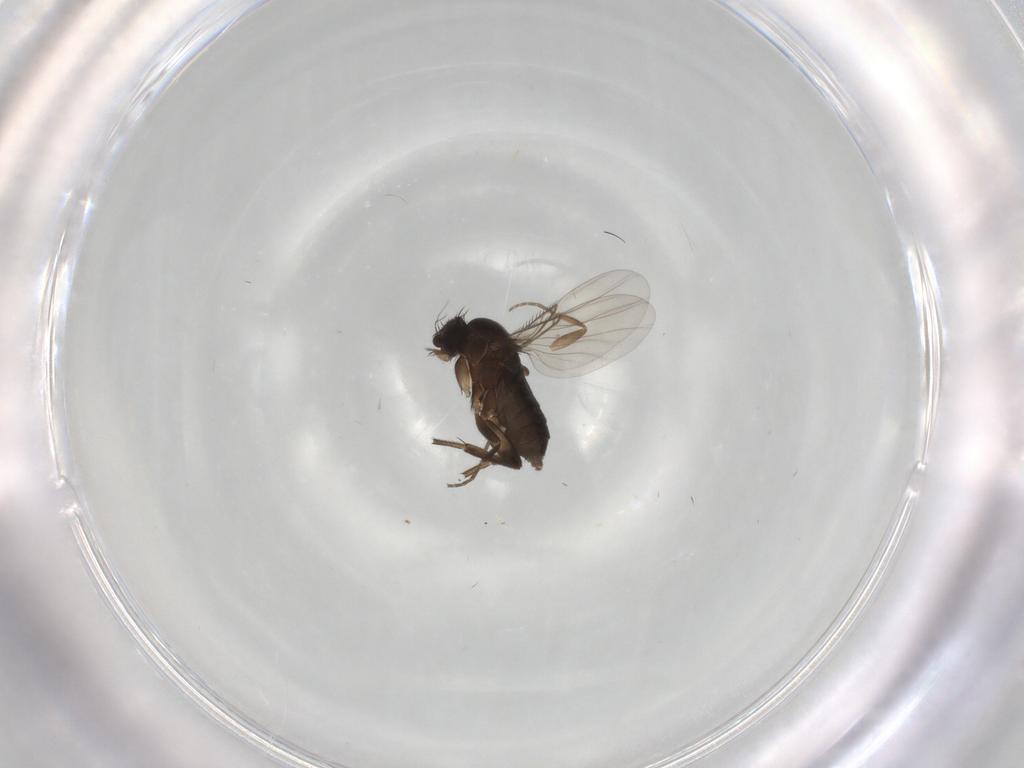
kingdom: Animalia
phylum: Arthropoda
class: Insecta
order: Diptera
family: Phoridae
